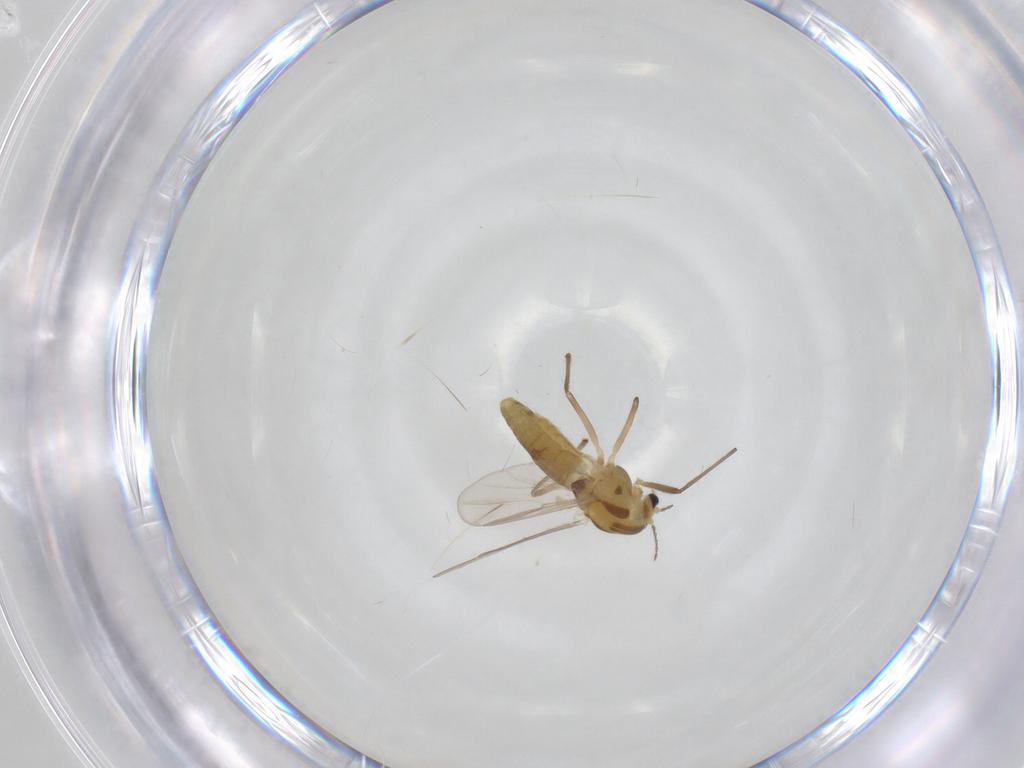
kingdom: Animalia
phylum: Arthropoda
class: Insecta
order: Diptera
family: Chironomidae
